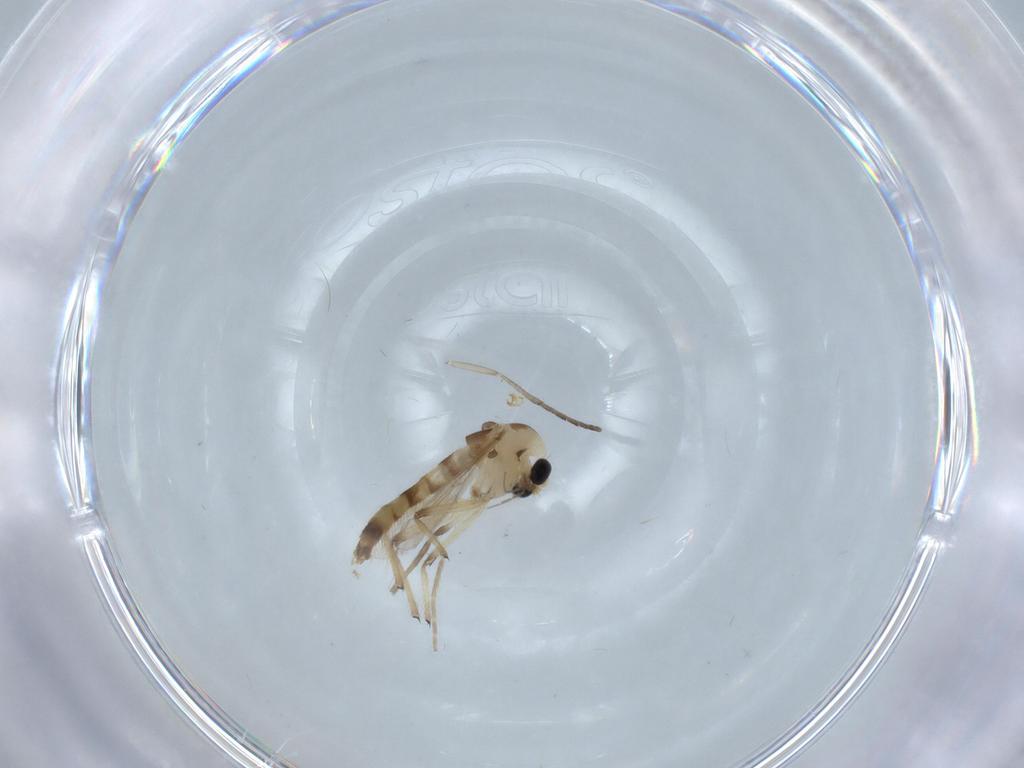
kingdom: Animalia
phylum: Arthropoda
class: Insecta
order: Diptera
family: Chironomidae
